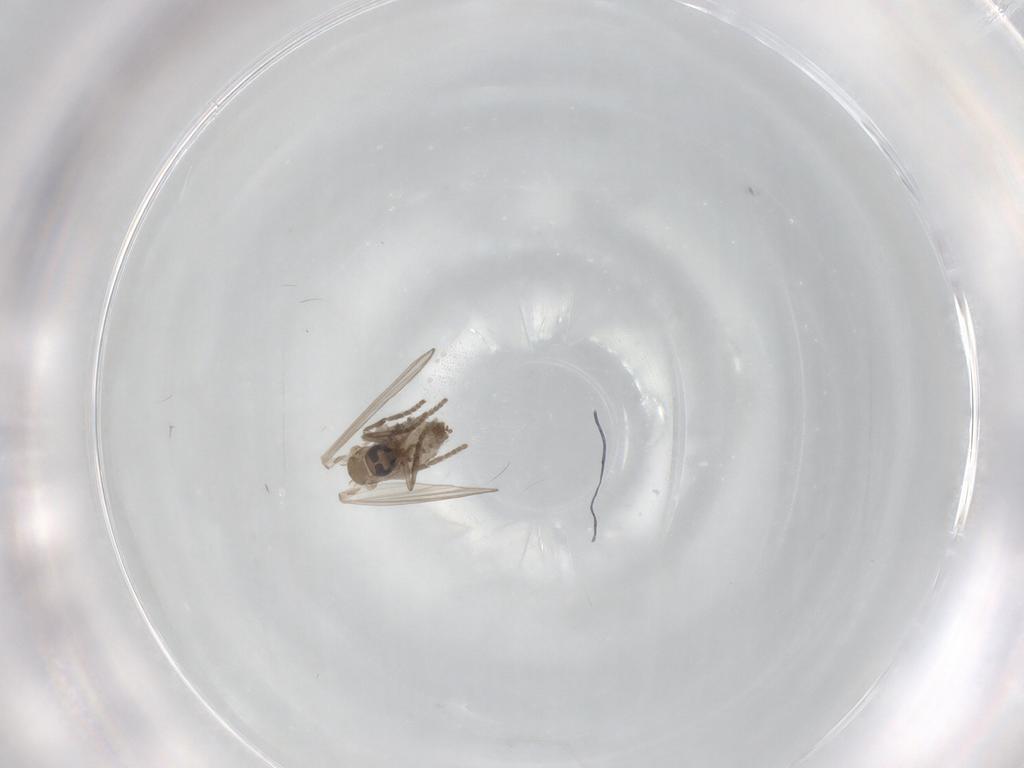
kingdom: Animalia
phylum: Arthropoda
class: Insecta
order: Diptera
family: Psychodidae
